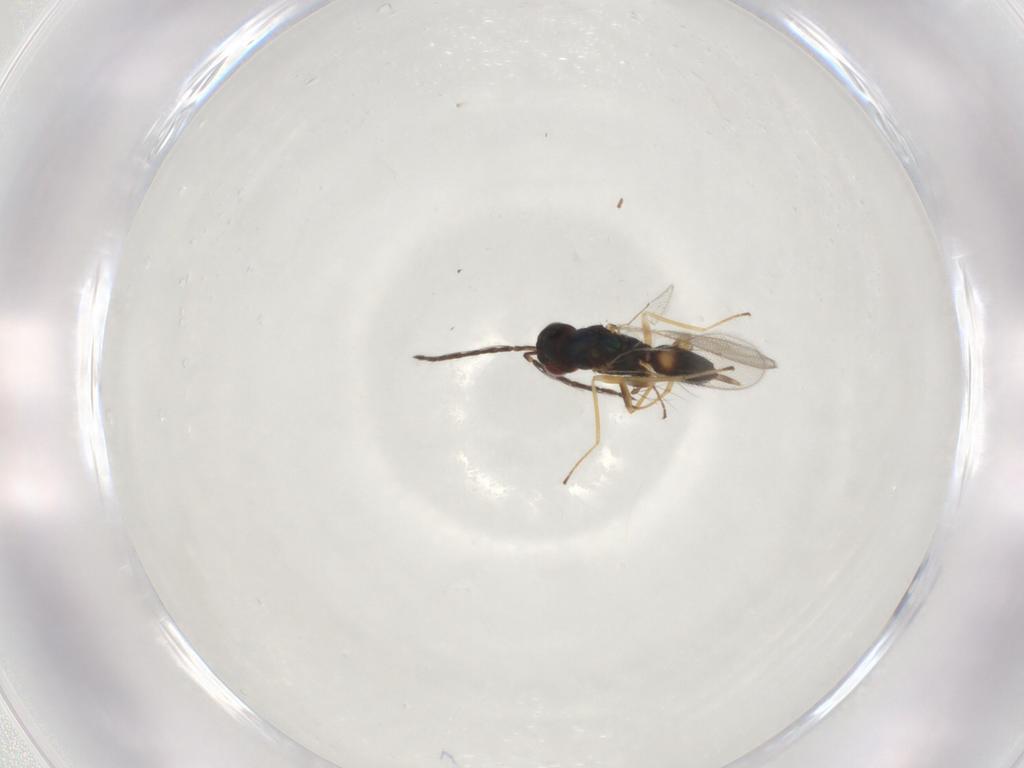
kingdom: Animalia
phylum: Arthropoda
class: Insecta
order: Hymenoptera
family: Eulophidae
